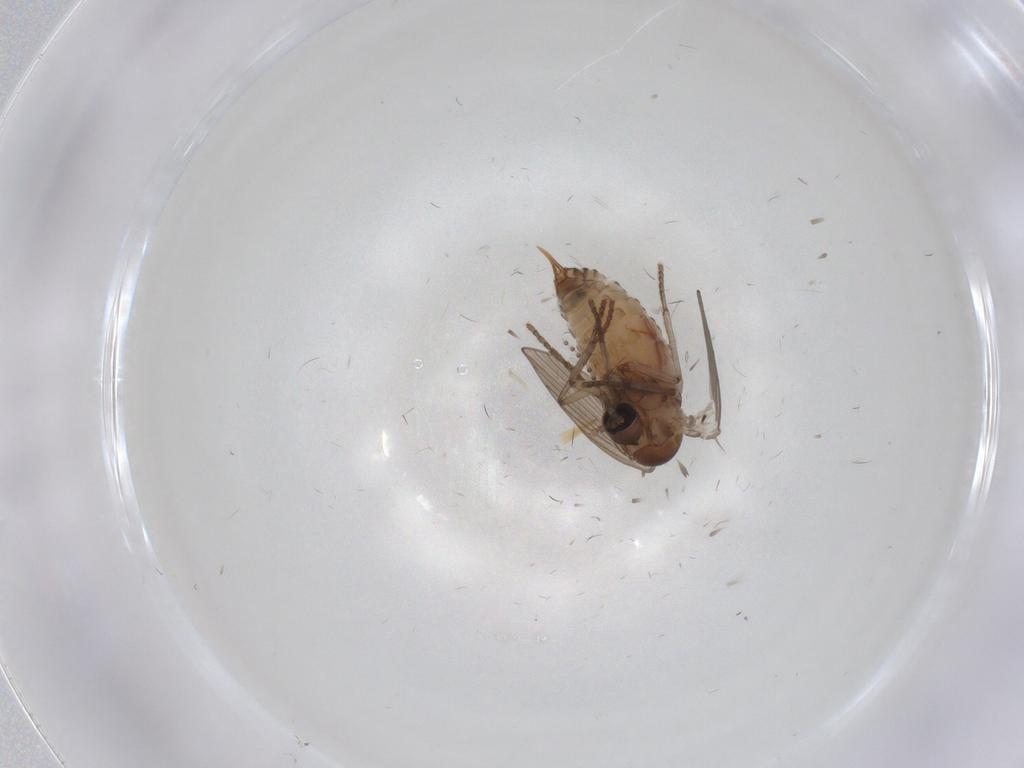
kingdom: Animalia
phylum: Arthropoda
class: Insecta
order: Diptera
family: Psychodidae
